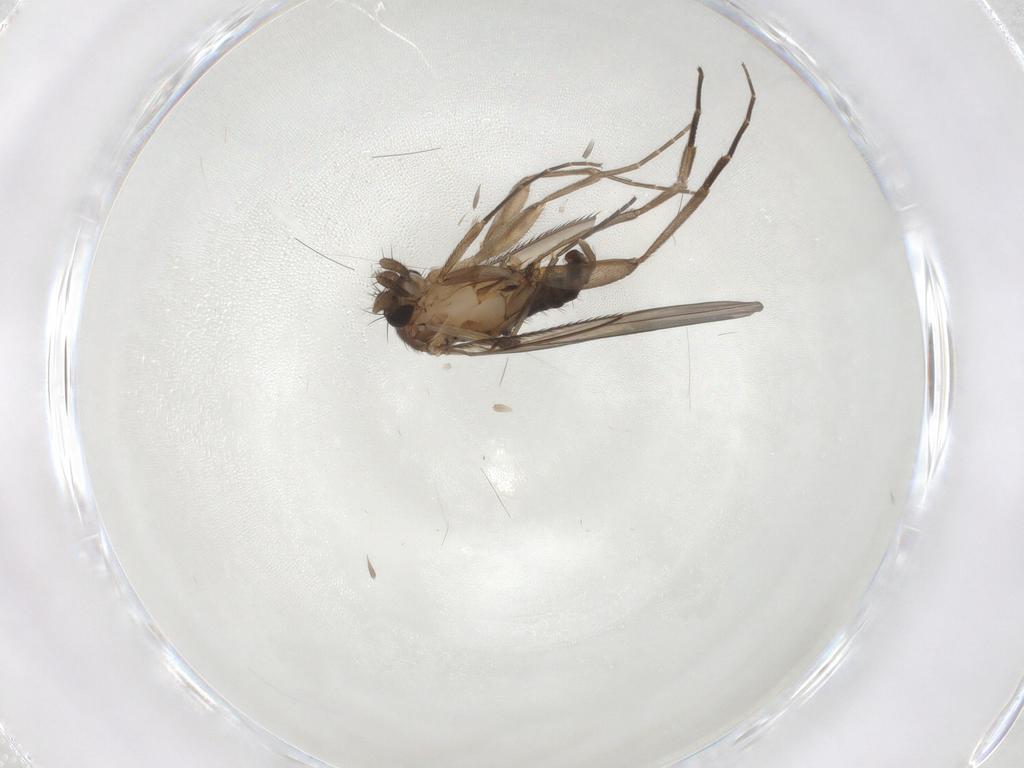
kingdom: Animalia
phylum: Arthropoda
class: Insecta
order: Diptera
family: Phoridae
